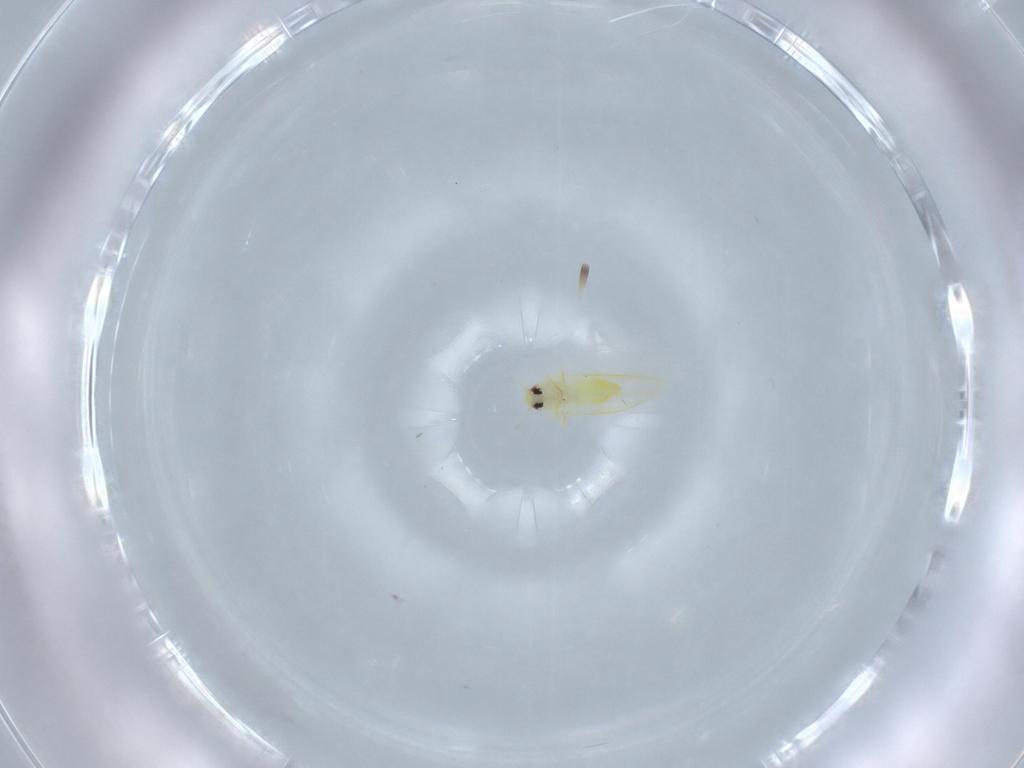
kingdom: Animalia
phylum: Arthropoda
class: Insecta
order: Hemiptera
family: Aleyrodidae
